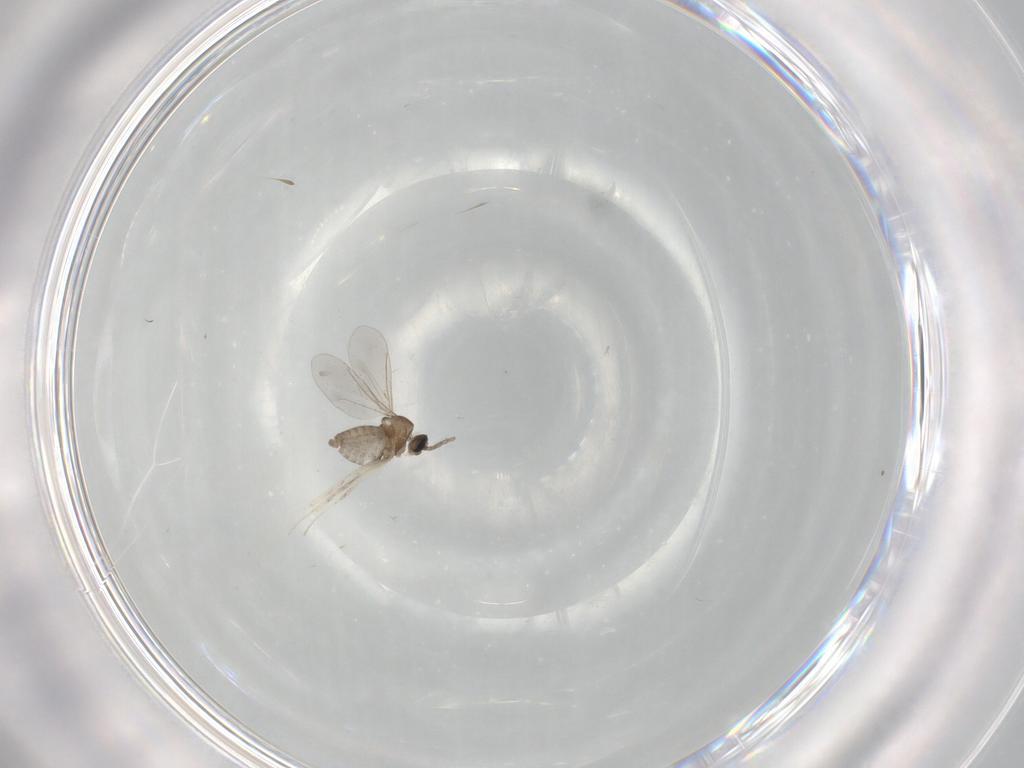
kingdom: Animalia
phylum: Arthropoda
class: Insecta
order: Diptera
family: Cecidomyiidae
